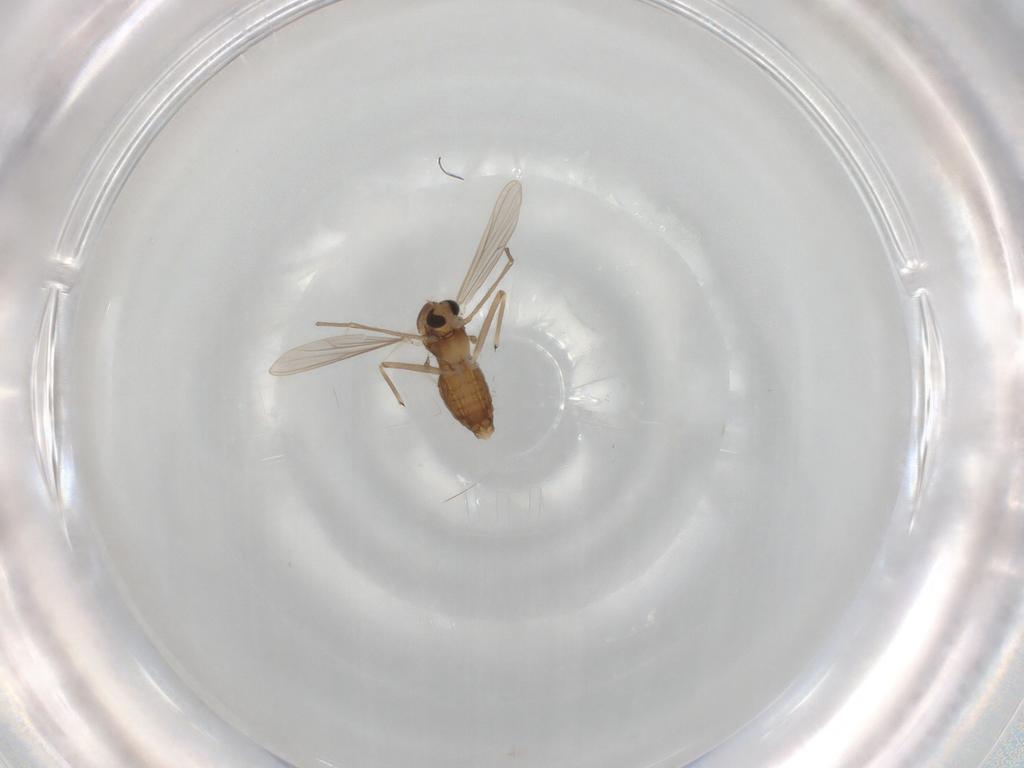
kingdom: Animalia
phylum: Arthropoda
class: Insecta
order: Diptera
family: Chironomidae
